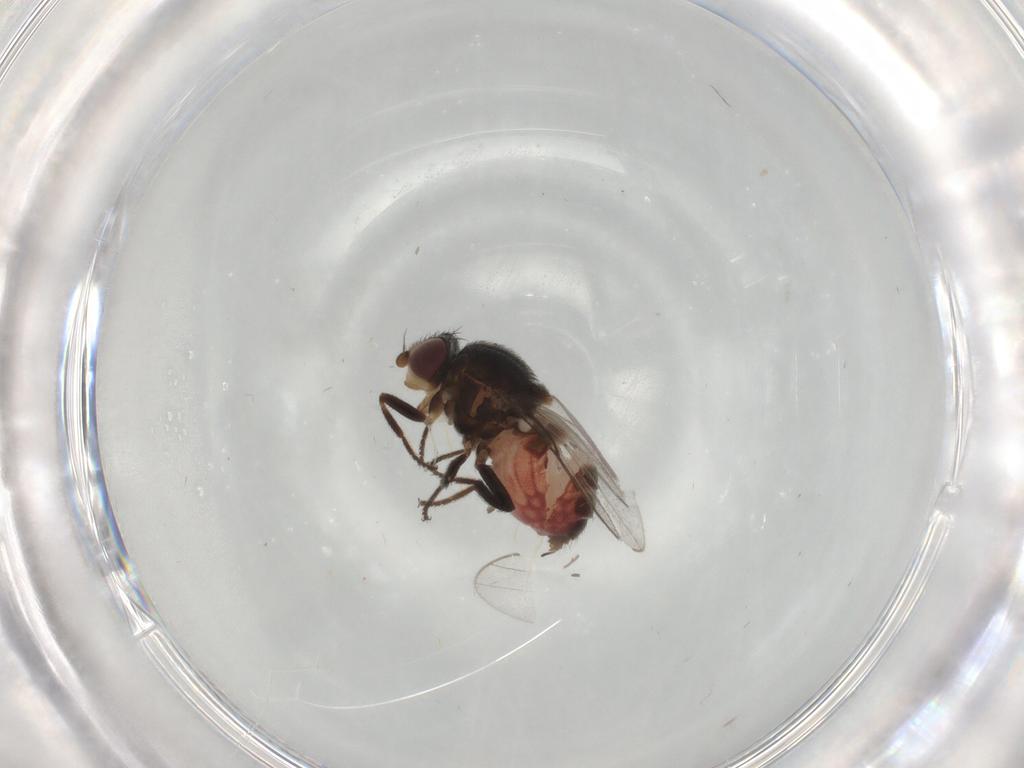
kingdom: Animalia
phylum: Arthropoda
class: Insecta
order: Diptera
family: Chloropidae
